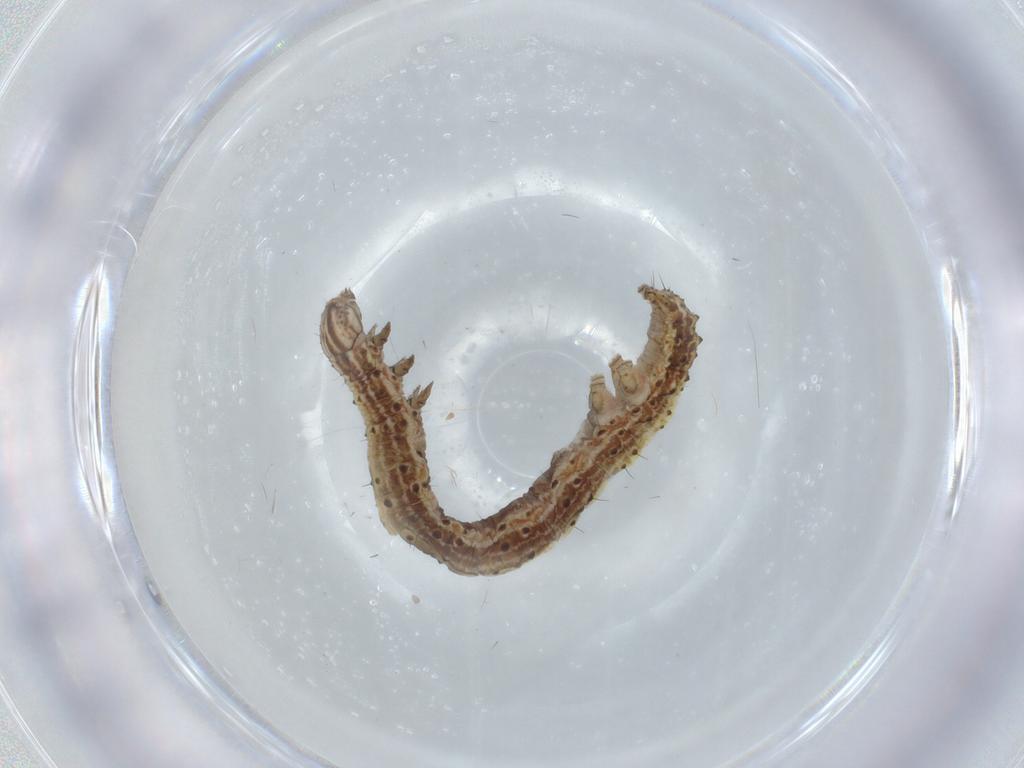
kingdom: Animalia
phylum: Arthropoda
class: Insecta
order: Lepidoptera
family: Erebidae
